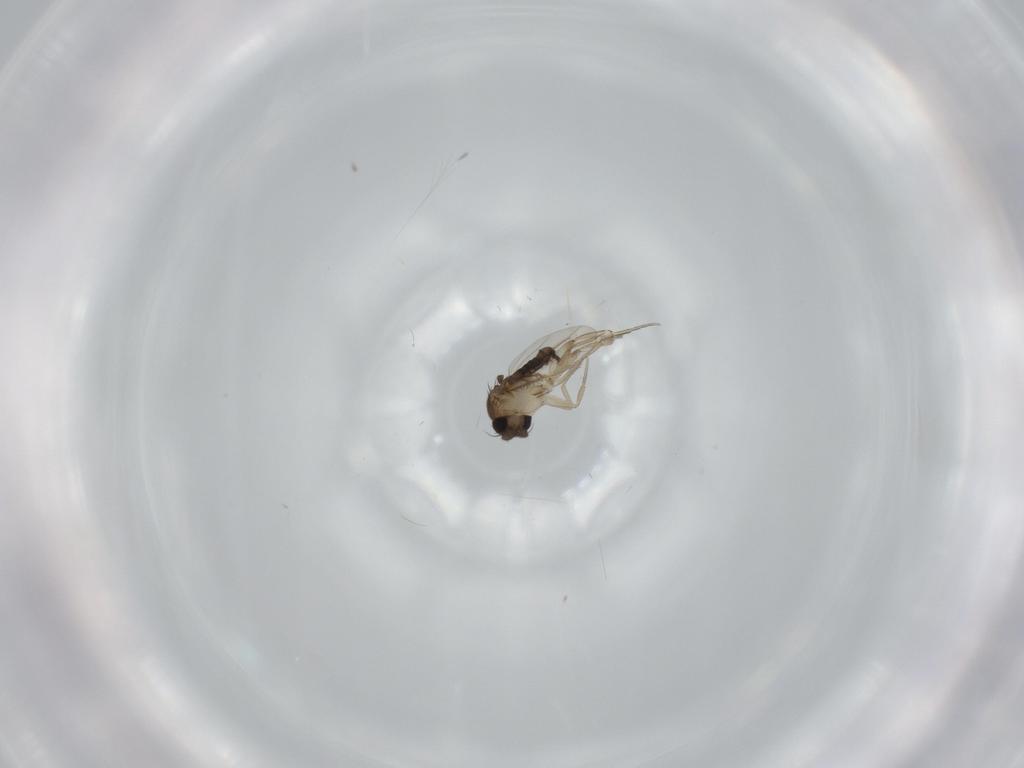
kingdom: Animalia
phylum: Arthropoda
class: Insecta
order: Diptera
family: Phoridae
